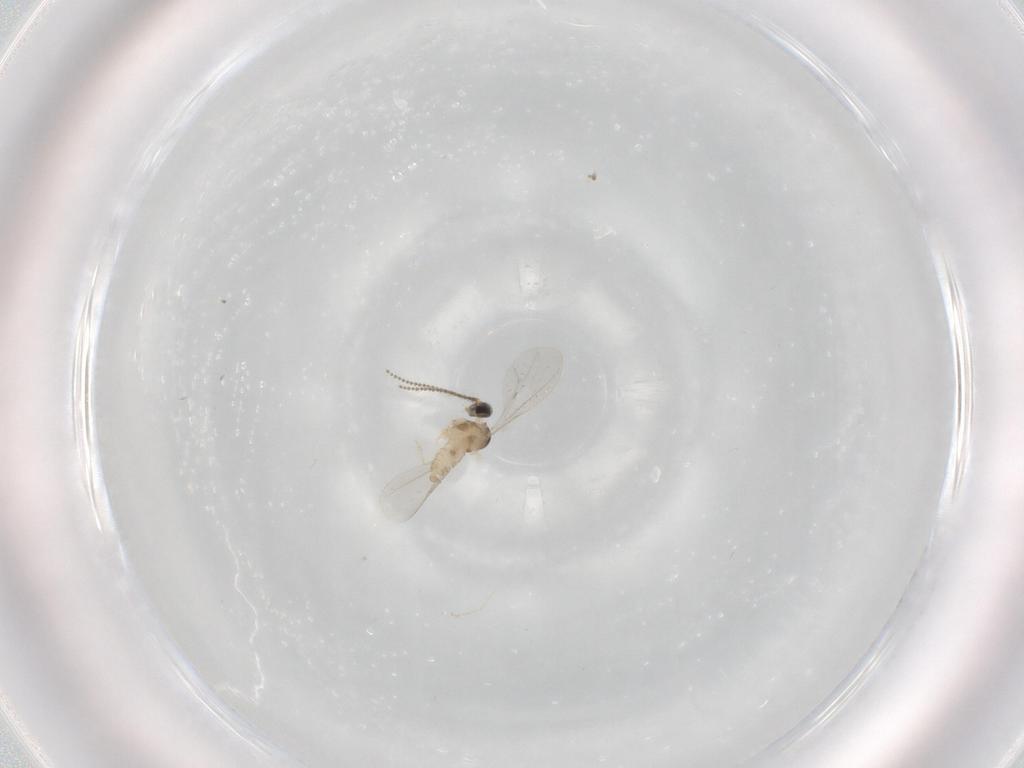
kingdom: Animalia
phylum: Arthropoda
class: Insecta
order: Diptera
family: Cecidomyiidae
